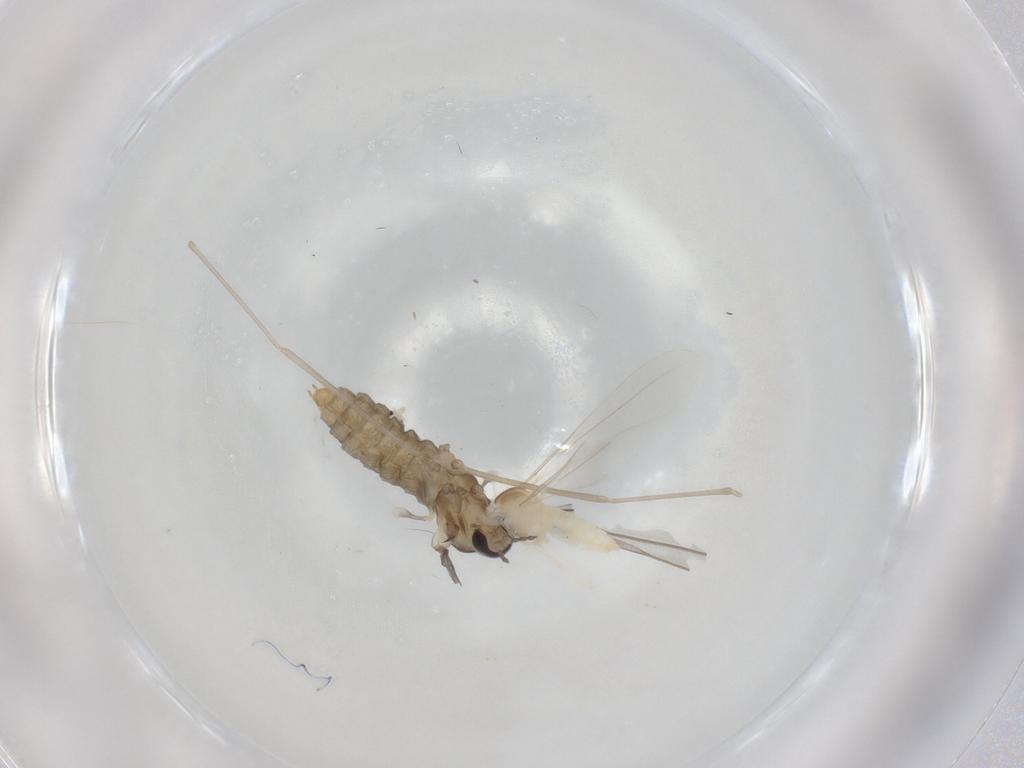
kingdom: Animalia
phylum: Arthropoda
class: Insecta
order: Diptera
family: Cecidomyiidae
